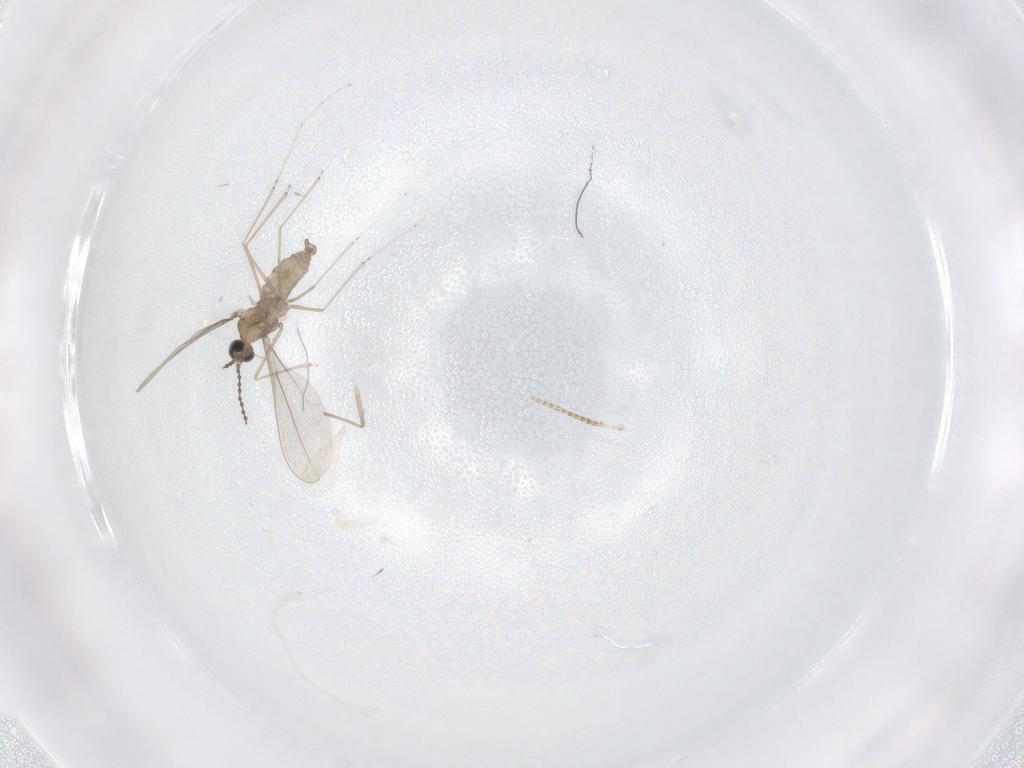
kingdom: Animalia
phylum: Arthropoda
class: Insecta
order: Diptera
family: Cecidomyiidae
